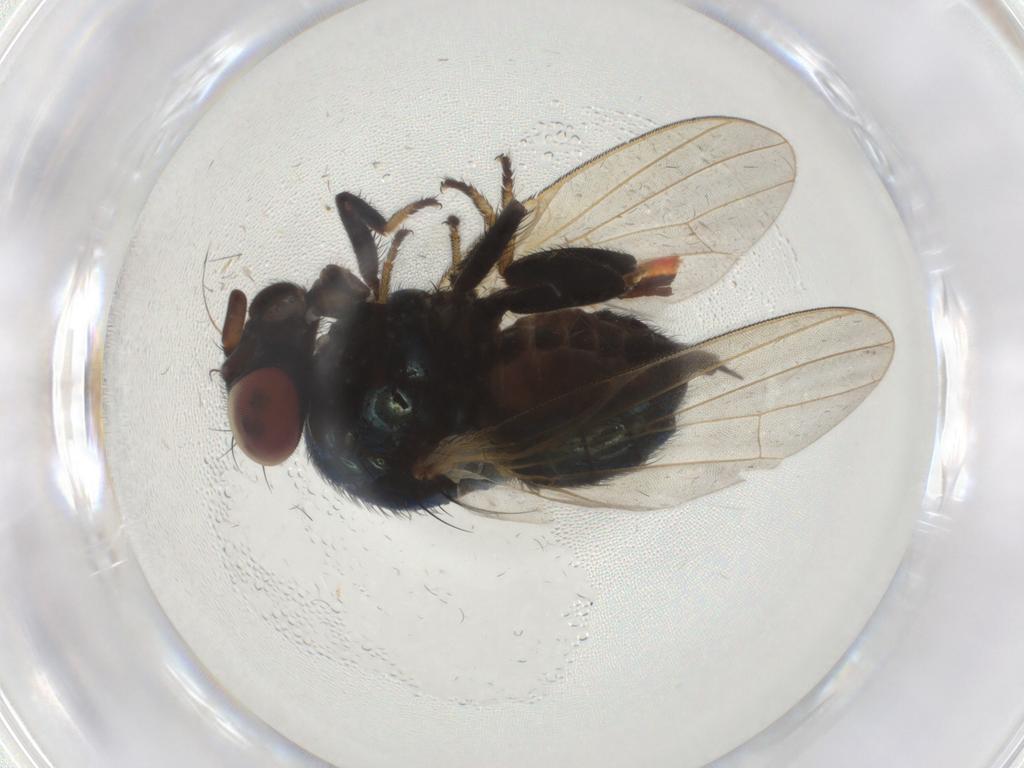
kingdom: Animalia
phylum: Arthropoda
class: Insecta
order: Diptera
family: Lonchaeidae
